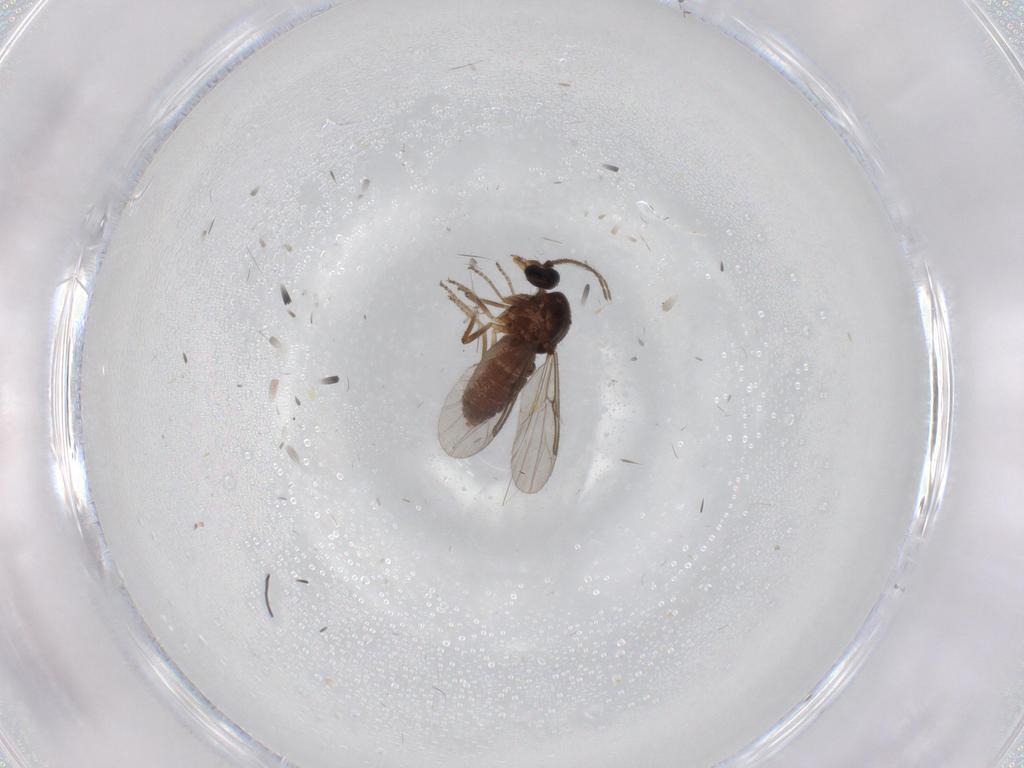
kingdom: Animalia
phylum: Arthropoda
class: Insecta
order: Diptera
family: Ceratopogonidae
